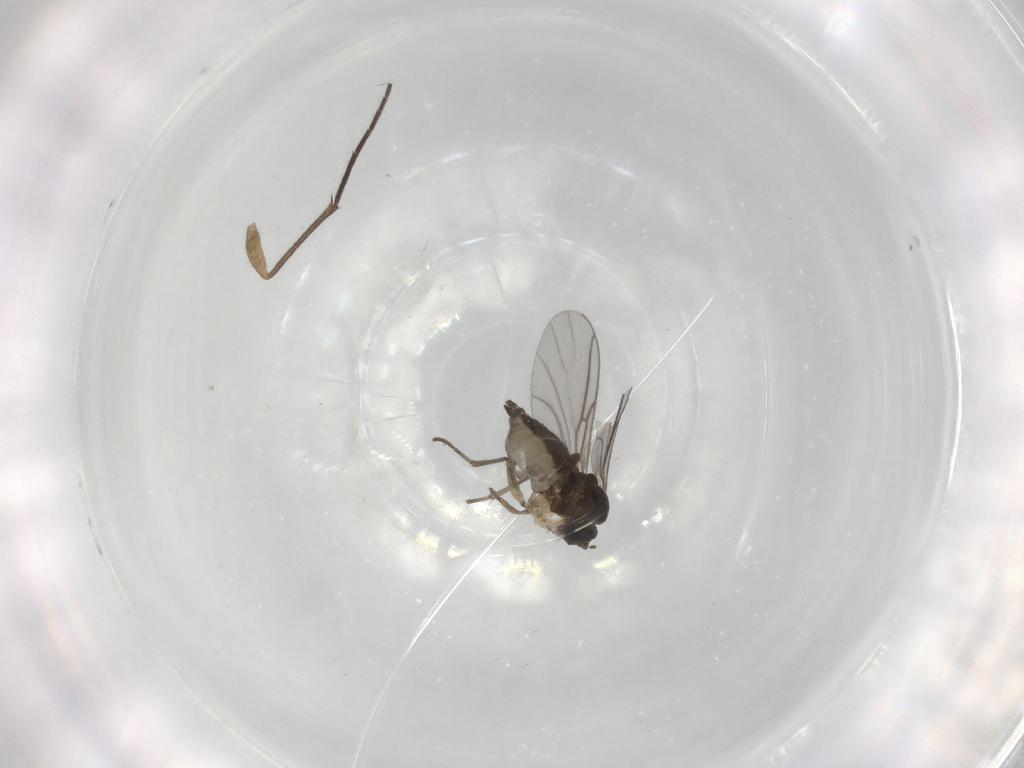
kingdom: Animalia
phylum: Arthropoda
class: Insecta
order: Diptera
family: Sciaridae
